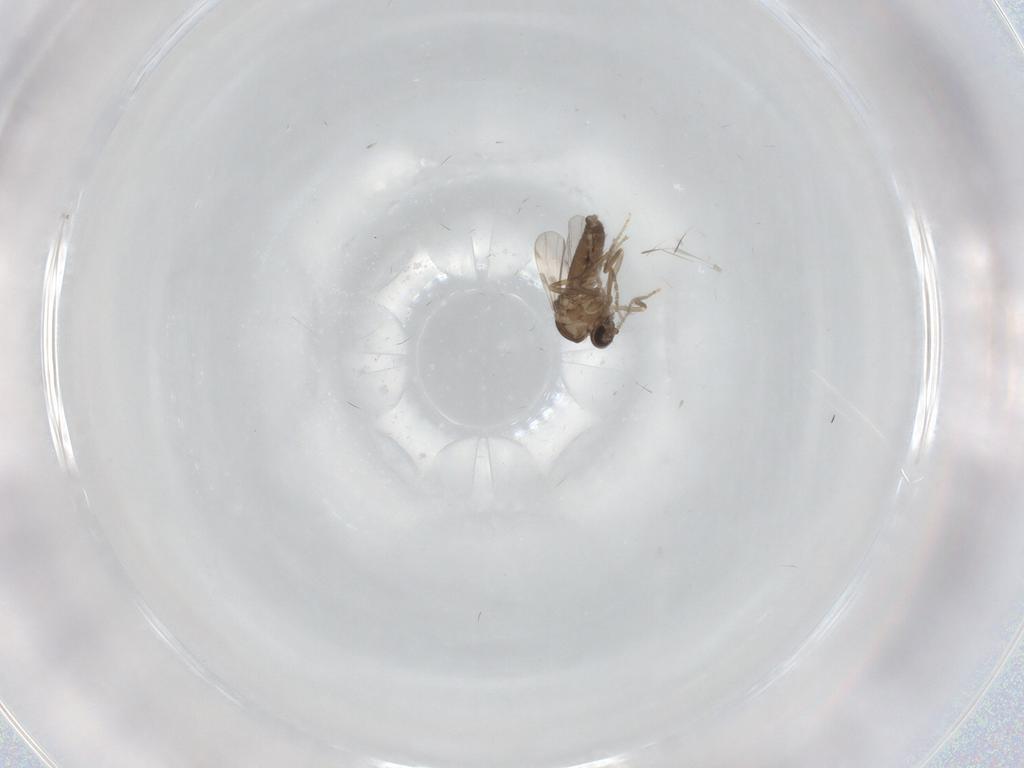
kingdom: Animalia
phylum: Arthropoda
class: Insecta
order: Diptera
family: Ceratopogonidae
